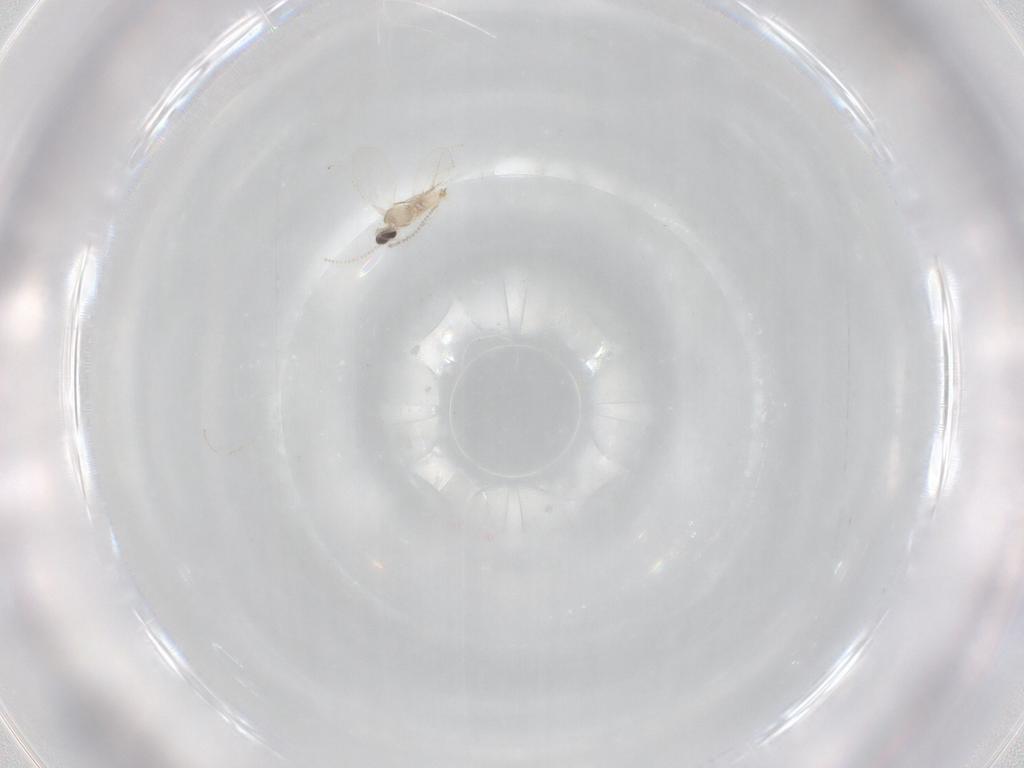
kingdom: Animalia
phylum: Arthropoda
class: Insecta
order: Diptera
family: Cecidomyiidae
